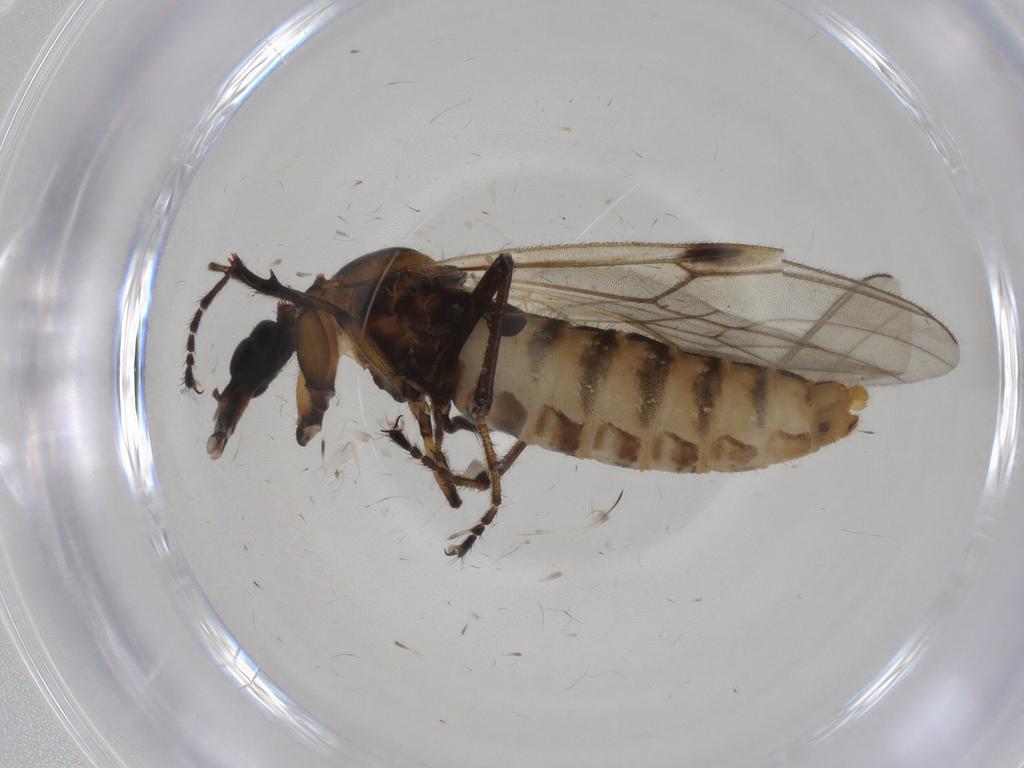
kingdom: Animalia
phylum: Arthropoda
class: Insecta
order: Diptera
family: Bibionidae
